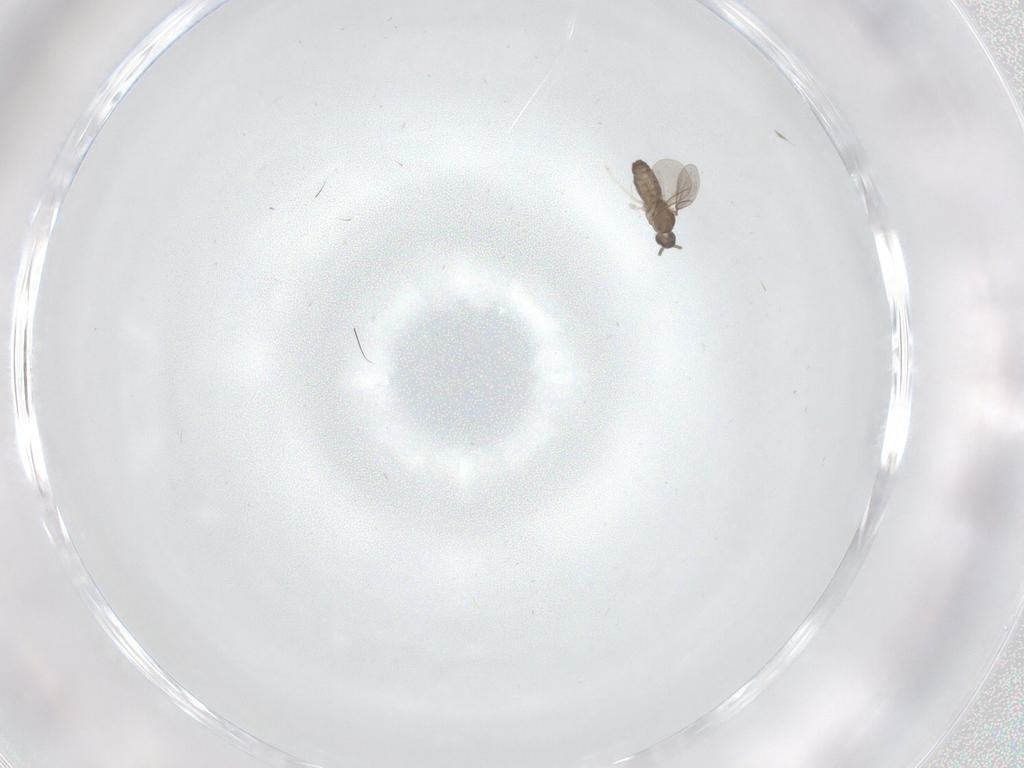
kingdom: Animalia
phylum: Arthropoda
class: Insecta
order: Diptera
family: Cecidomyiidae
